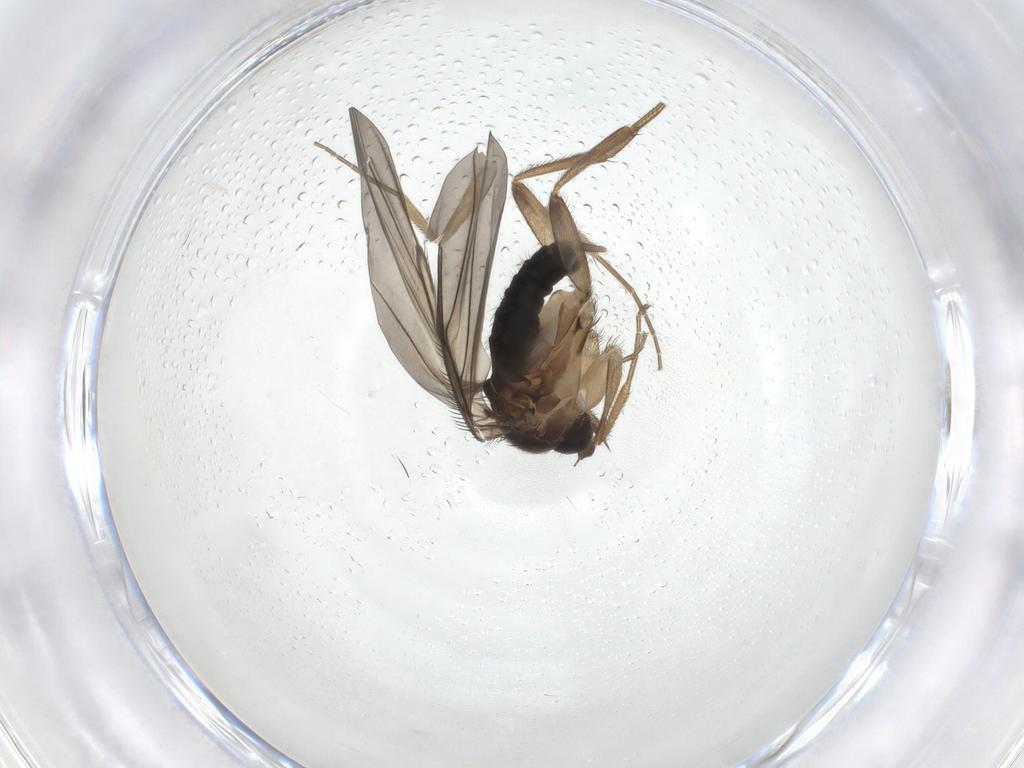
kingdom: Animalia
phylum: Arthropoda
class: Insecta
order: Diptera
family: Phoridae
